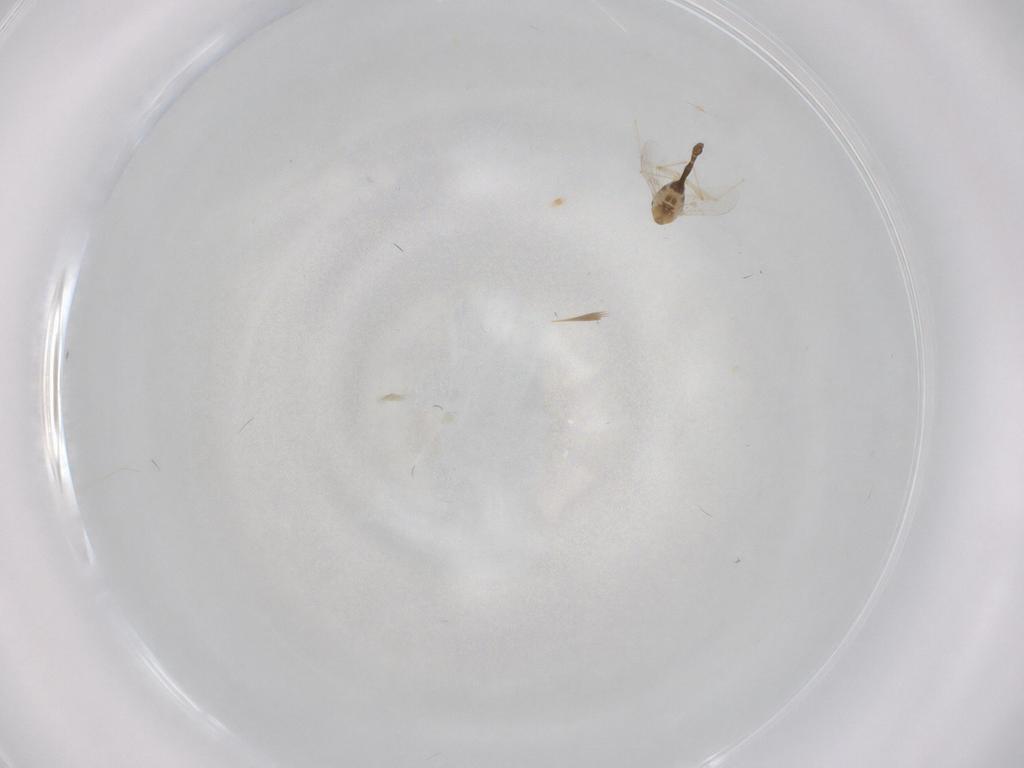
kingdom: Animalia
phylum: Arthropoda
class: Insecta
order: Diptera
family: Chironomidae
